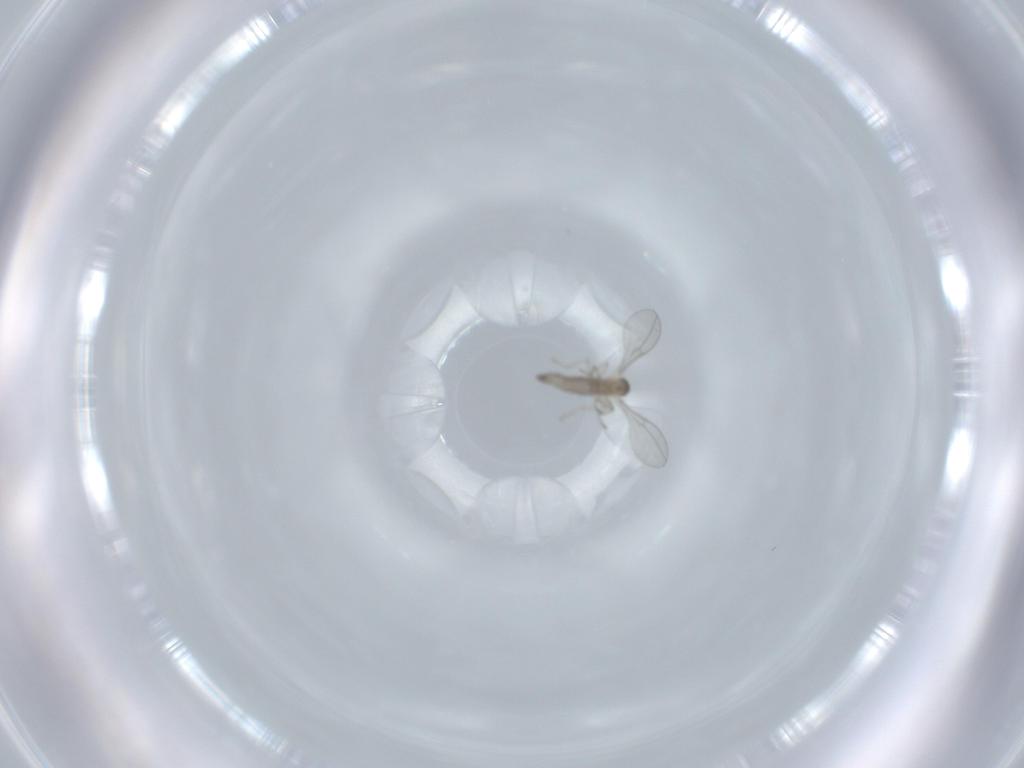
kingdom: Animalia
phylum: Arthropoda
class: Insecta
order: Diptera
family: Cecidomyiidae
